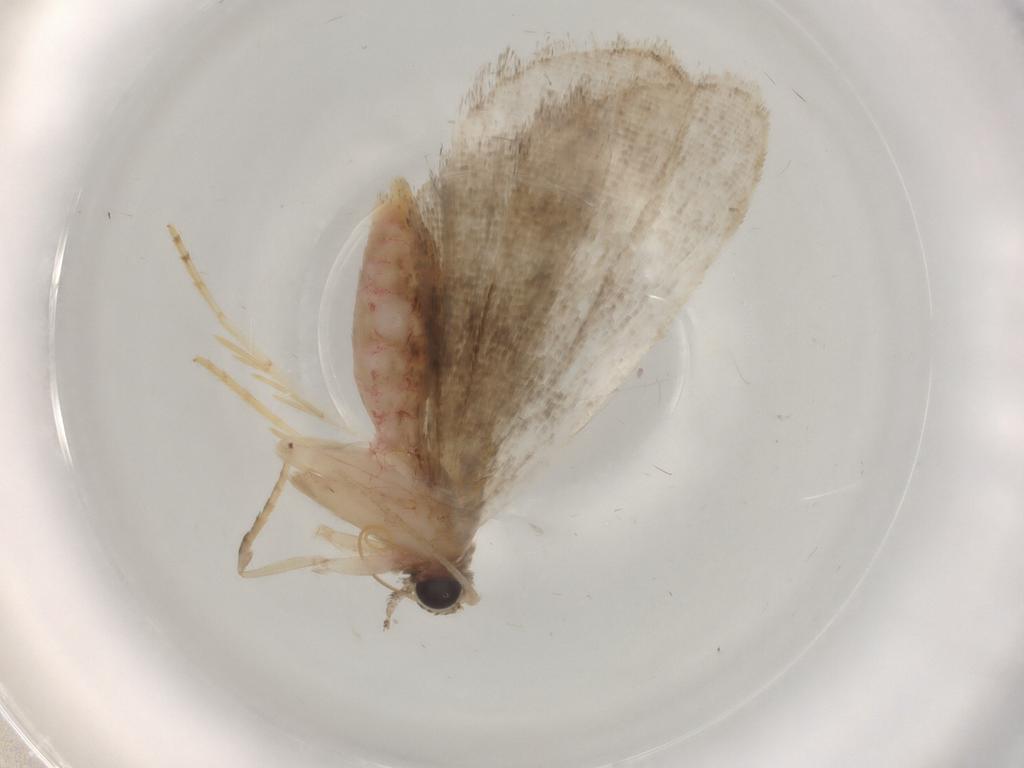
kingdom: Animalia
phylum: Arthropoda
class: Insecta
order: Lepidoptera
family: Erebidae
